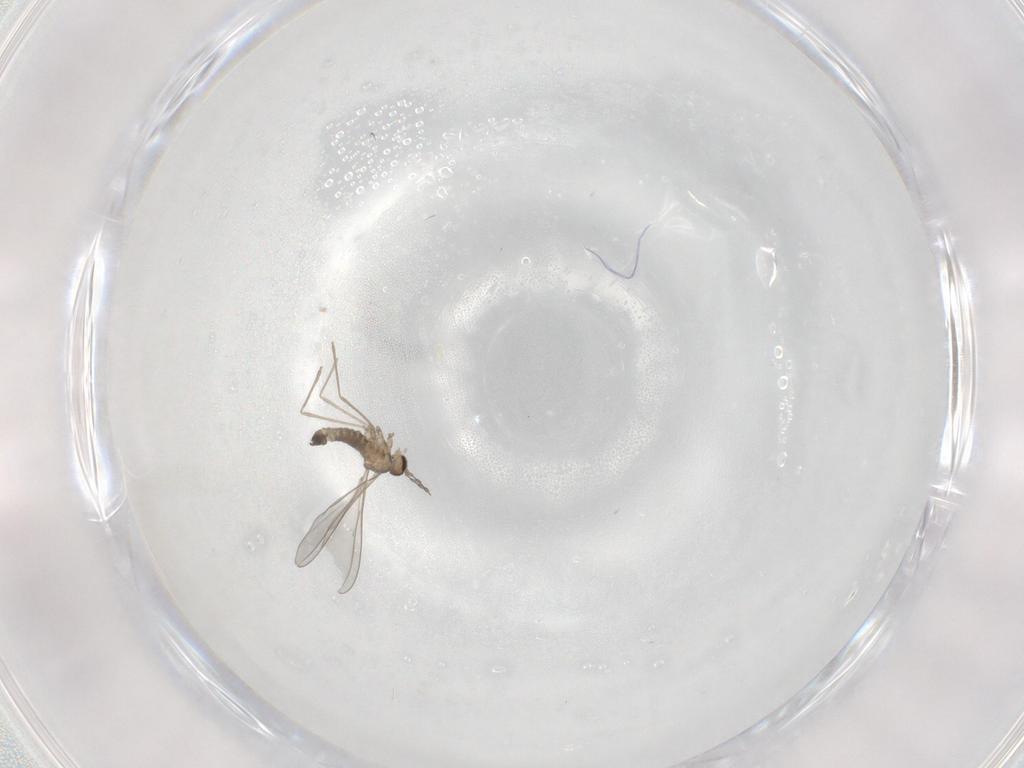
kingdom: Animalia
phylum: Arthropoda
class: Insecta
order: Diptera
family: Cecidomyiidae
